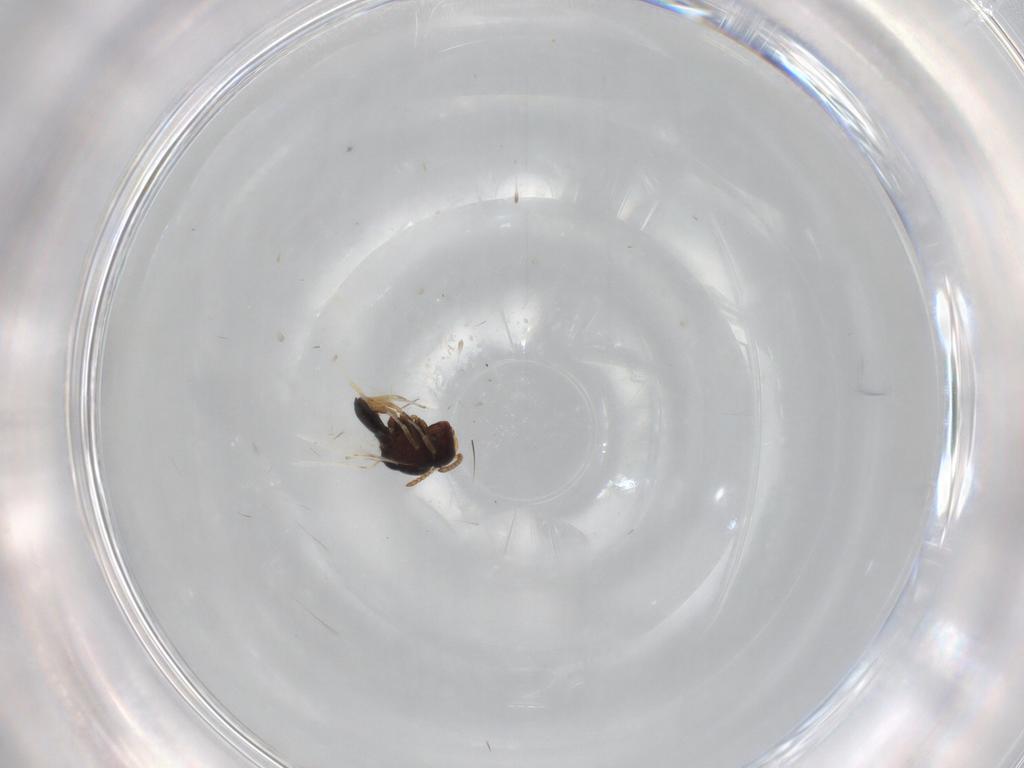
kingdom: Animalia
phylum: Arthropoda
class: Insecta
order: Hymenoptera
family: Scelionidae
